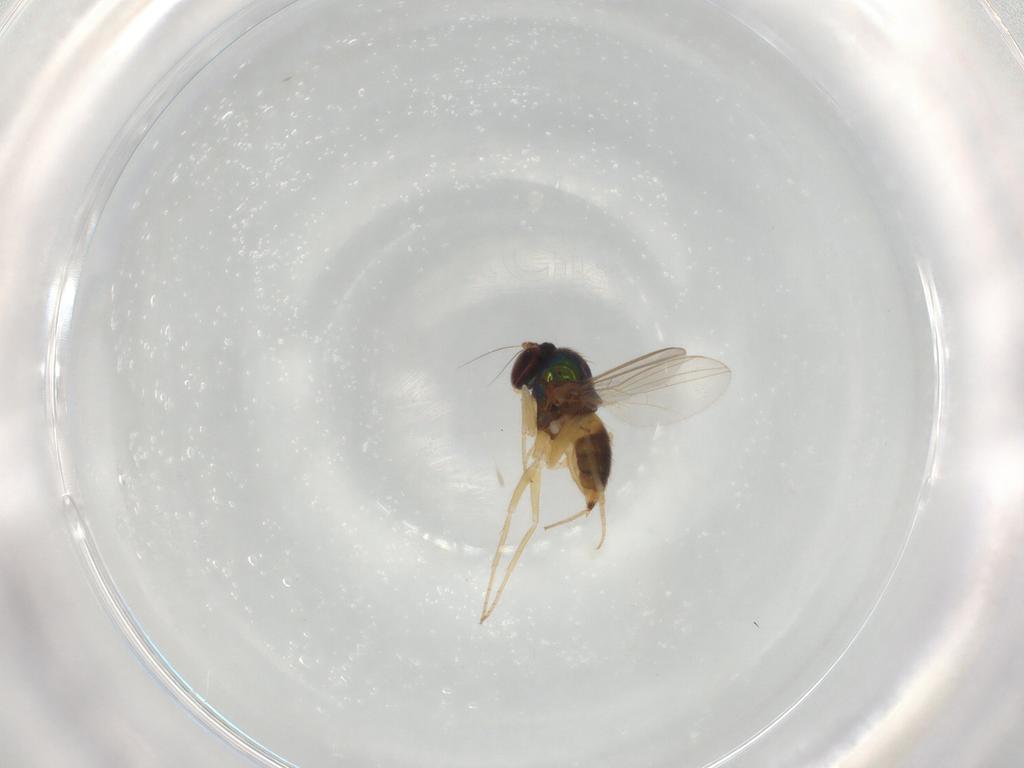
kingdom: Animalia
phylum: Arthropoda
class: Insecta
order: Diptera
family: Dolichopodidae
